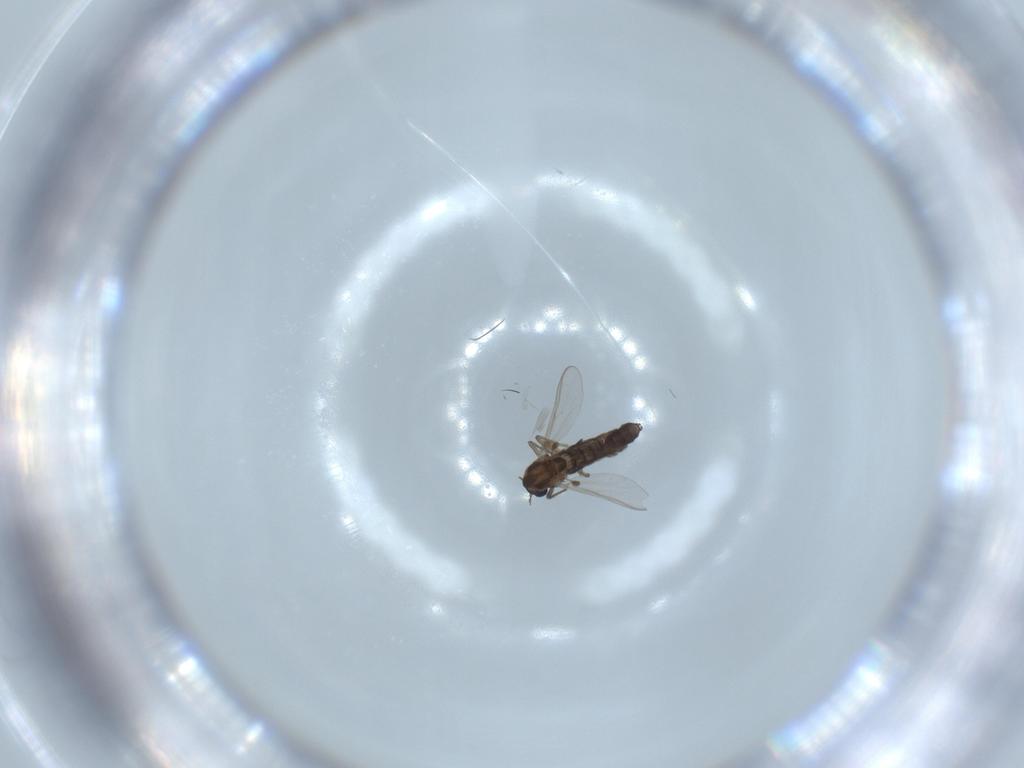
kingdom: Animalia
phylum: Arthropoda
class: Insecta
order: Diptera
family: Chironomidae
